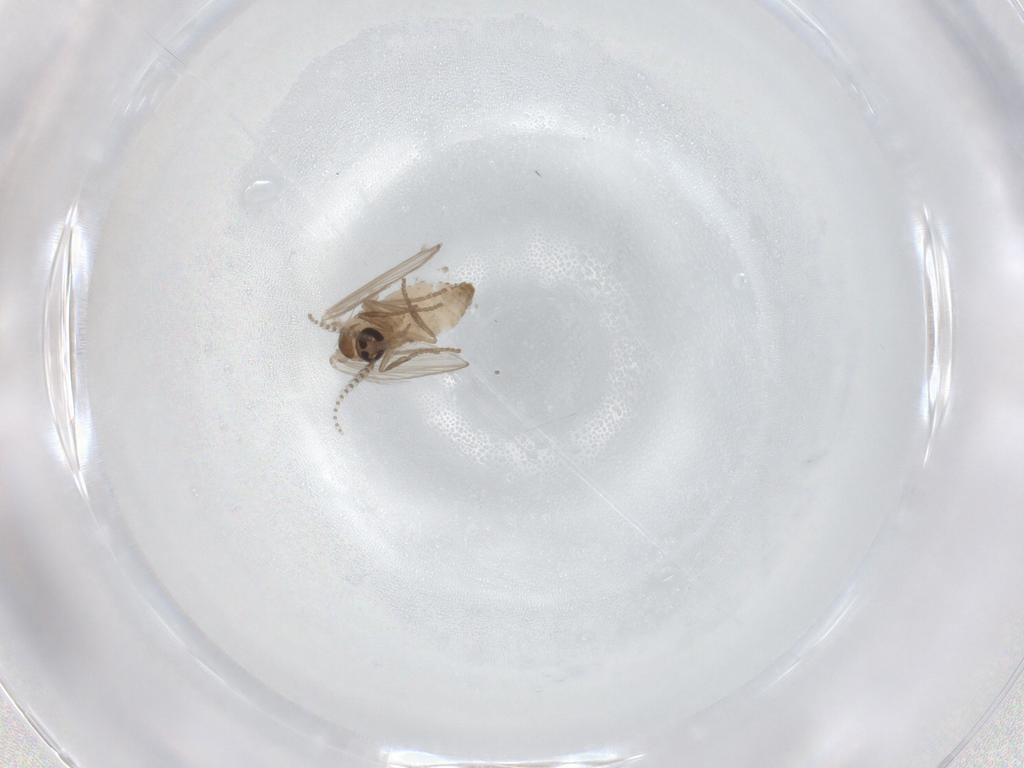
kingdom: Animalia
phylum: Arthropoda
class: Insecta
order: Diptera
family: Psychodidae
